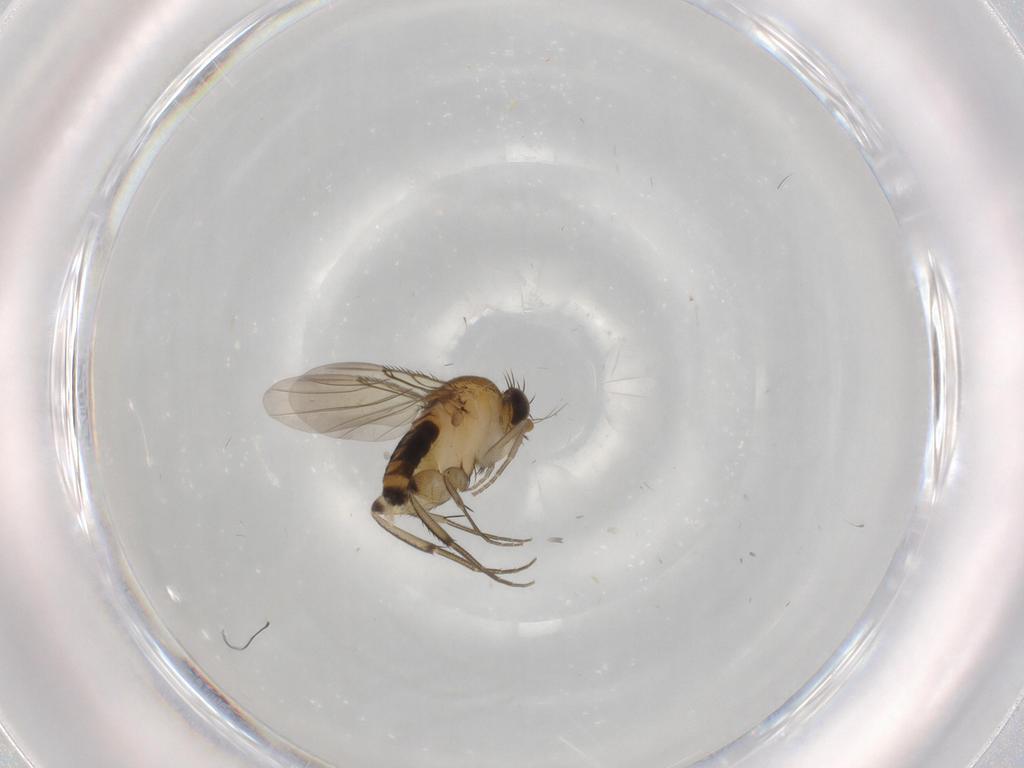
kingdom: Animalia
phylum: Arthropoda
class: Insecta
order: Diptera
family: Phoridae
